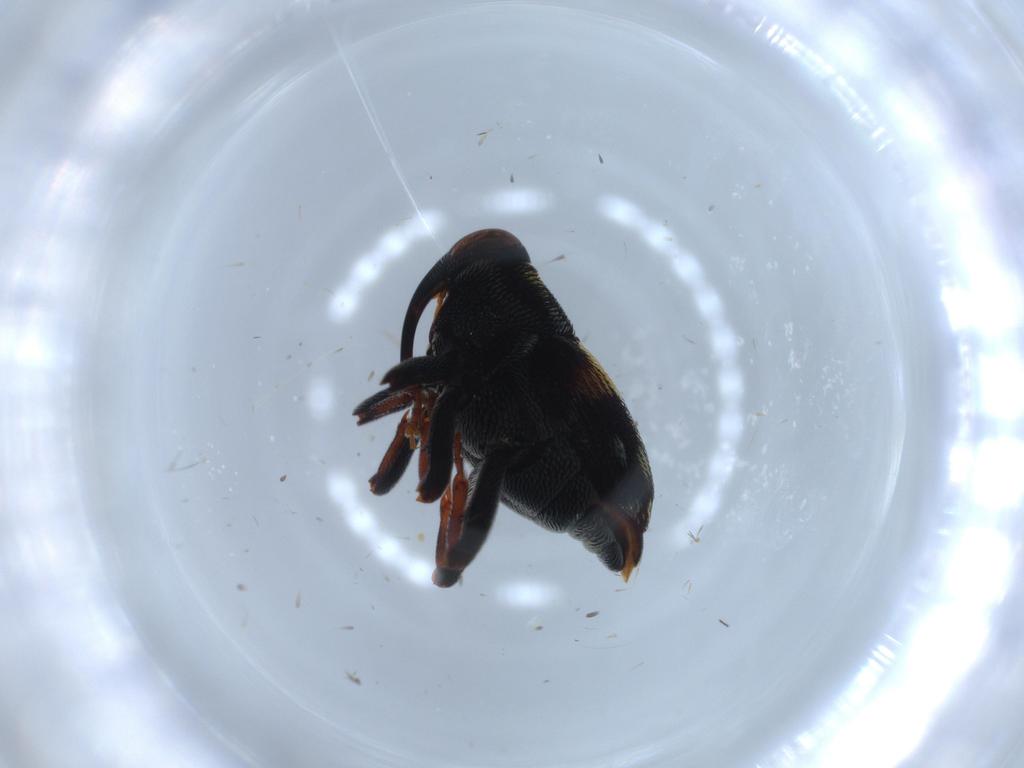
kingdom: Animalia
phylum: Arthropoda
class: Insecta
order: Coleoptera
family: Curculionidae
